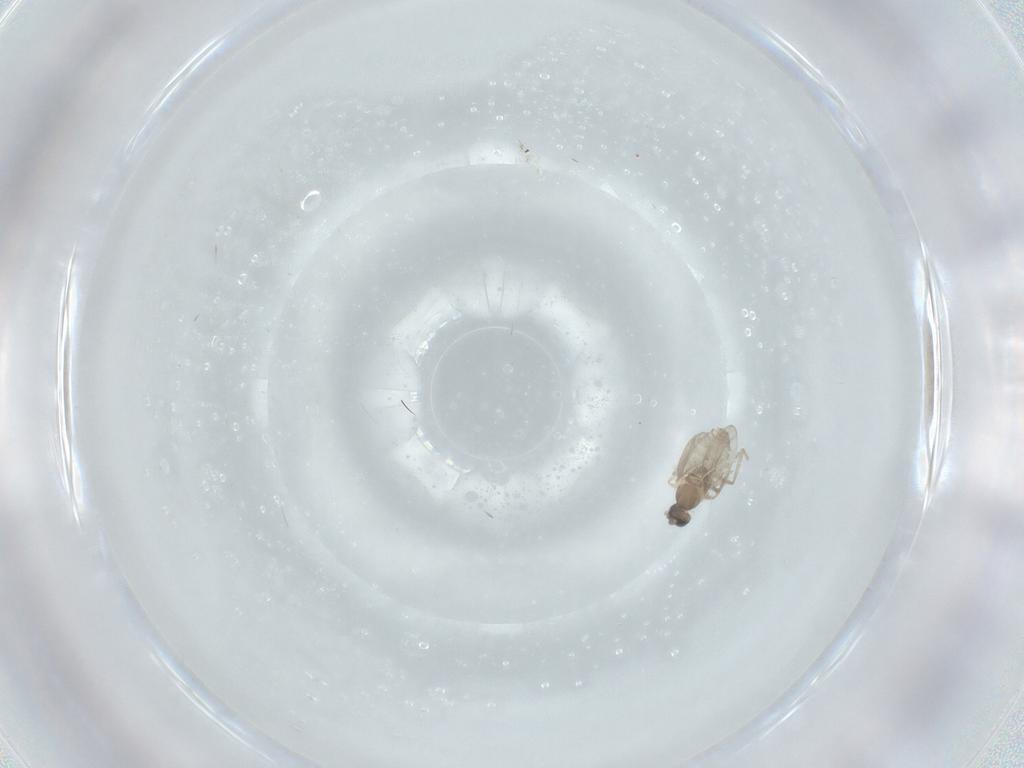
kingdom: Animalia
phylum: Arthropoda
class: Insecta
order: Diptera
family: Cecidomyiidae
